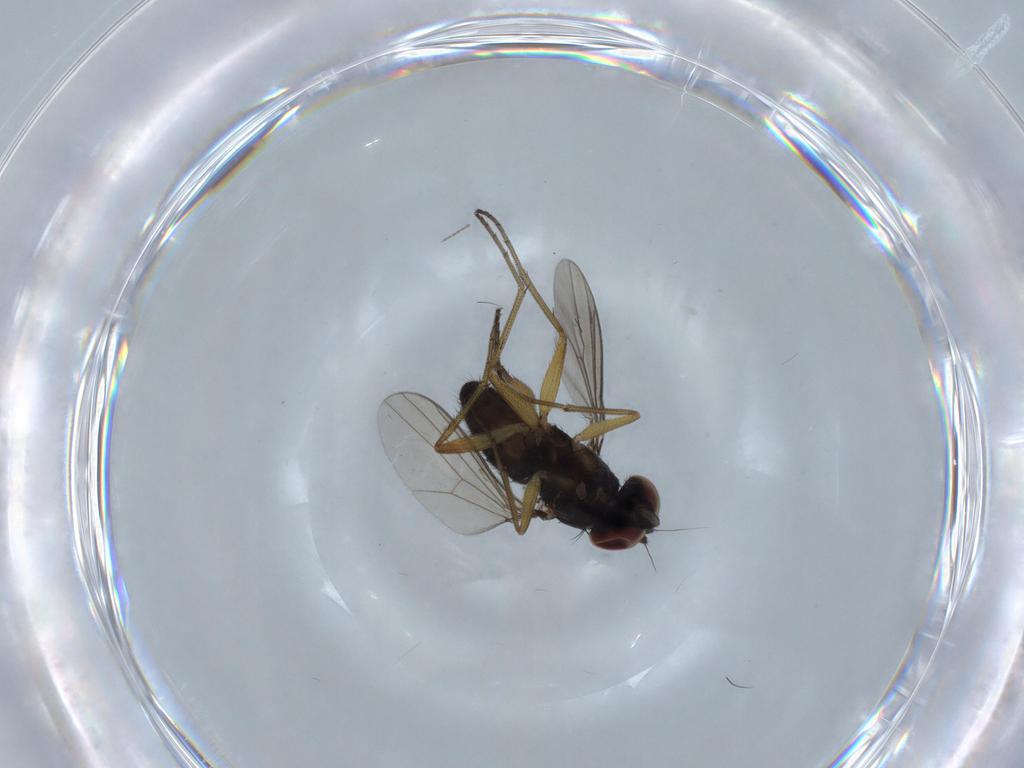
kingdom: Animalia
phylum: Arthropoda
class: Insecta
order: Diptera
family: Dolichopodidae
